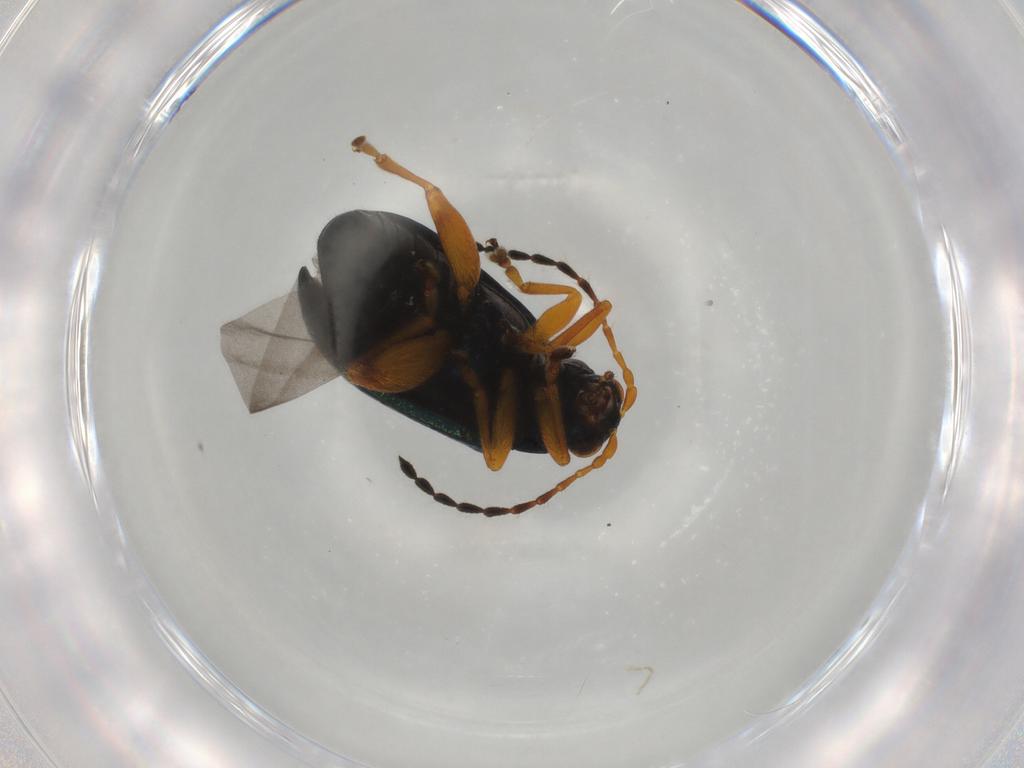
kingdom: Animalia
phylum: Arthropoda
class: Insecta
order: Coleoptera
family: Chrysomelidae
